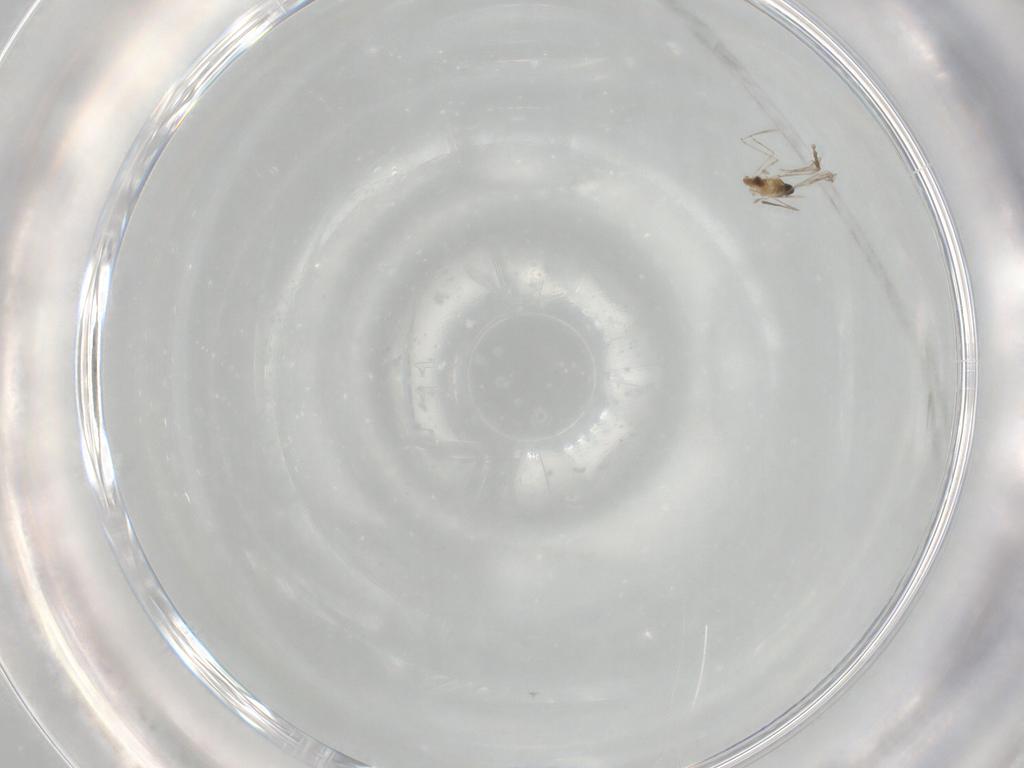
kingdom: Animalia
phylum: Arthropoda
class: Insecta
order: Diptera
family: Cecidomyiidae
